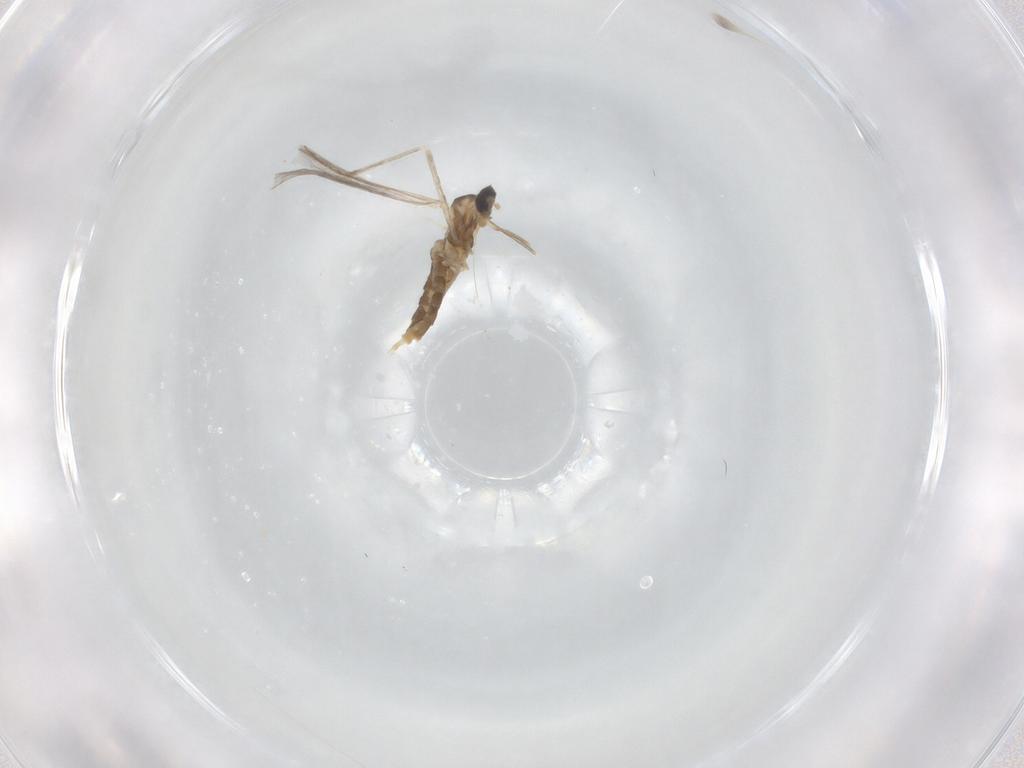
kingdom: Animalia
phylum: Arthropoda
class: Insecta
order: Diptera
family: Cecidomyiidae
